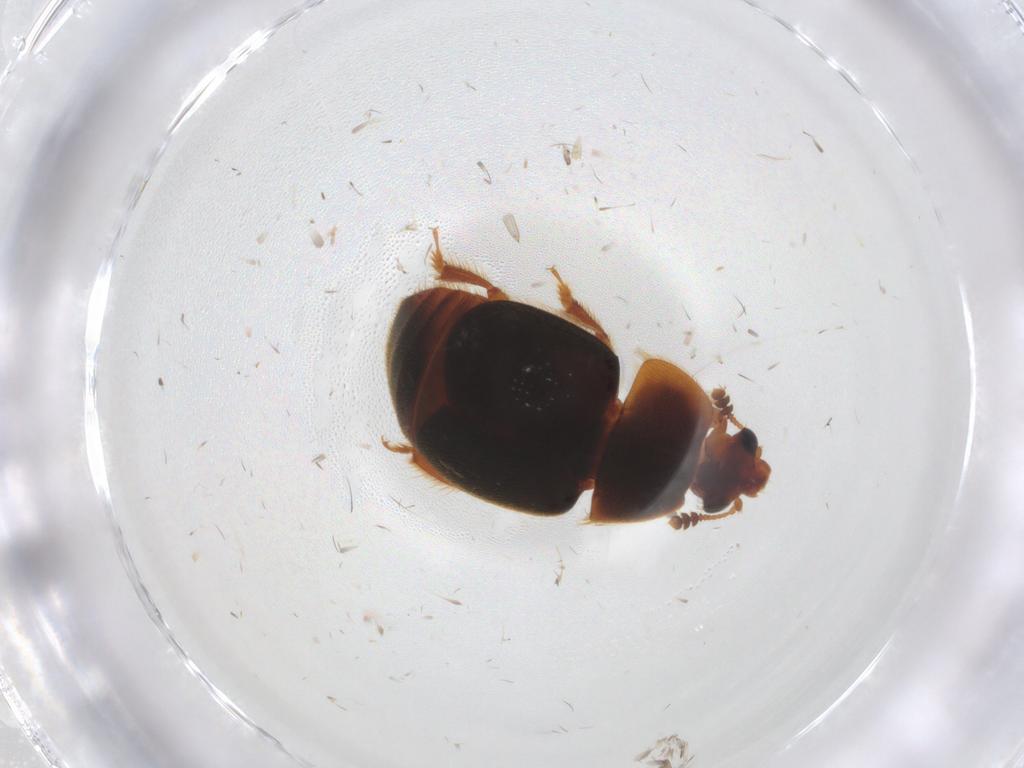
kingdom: Animalia
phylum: Arthropoda
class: Insecta
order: Coleoptera
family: Nitidulidae
